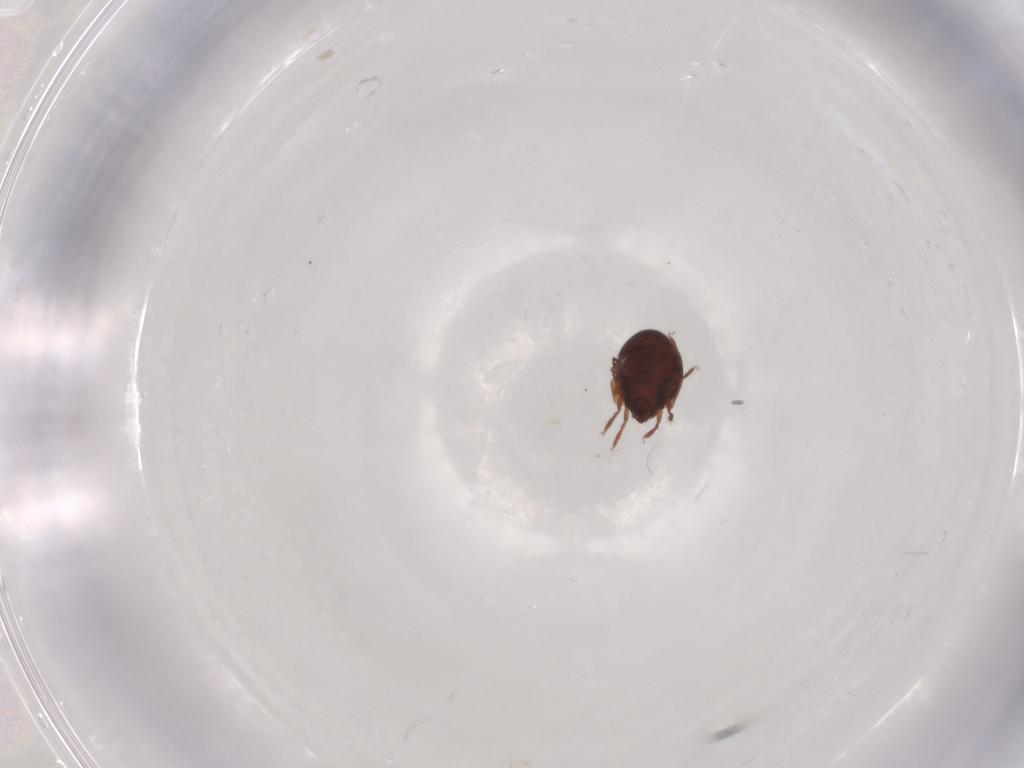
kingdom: Animalia
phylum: Arthropoda
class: Arachnida
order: Sarcoptiformes
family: Humerobatidae
